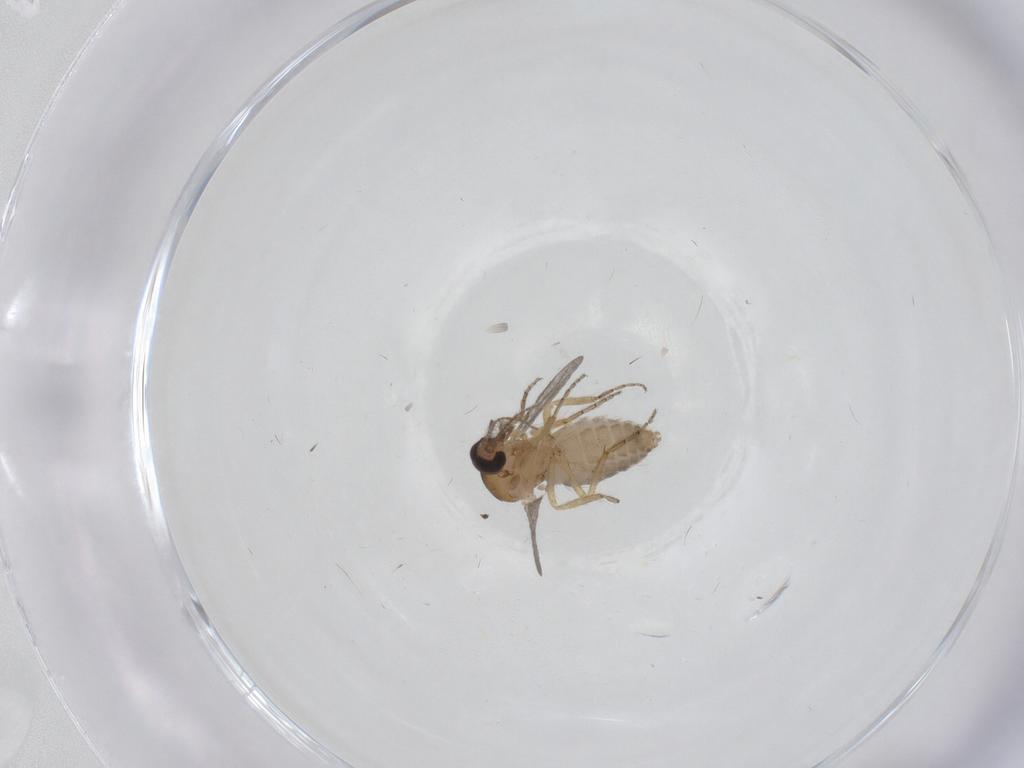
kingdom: Animalia
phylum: Arthropoda
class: Insecta
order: Diptera
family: Sciaridae
